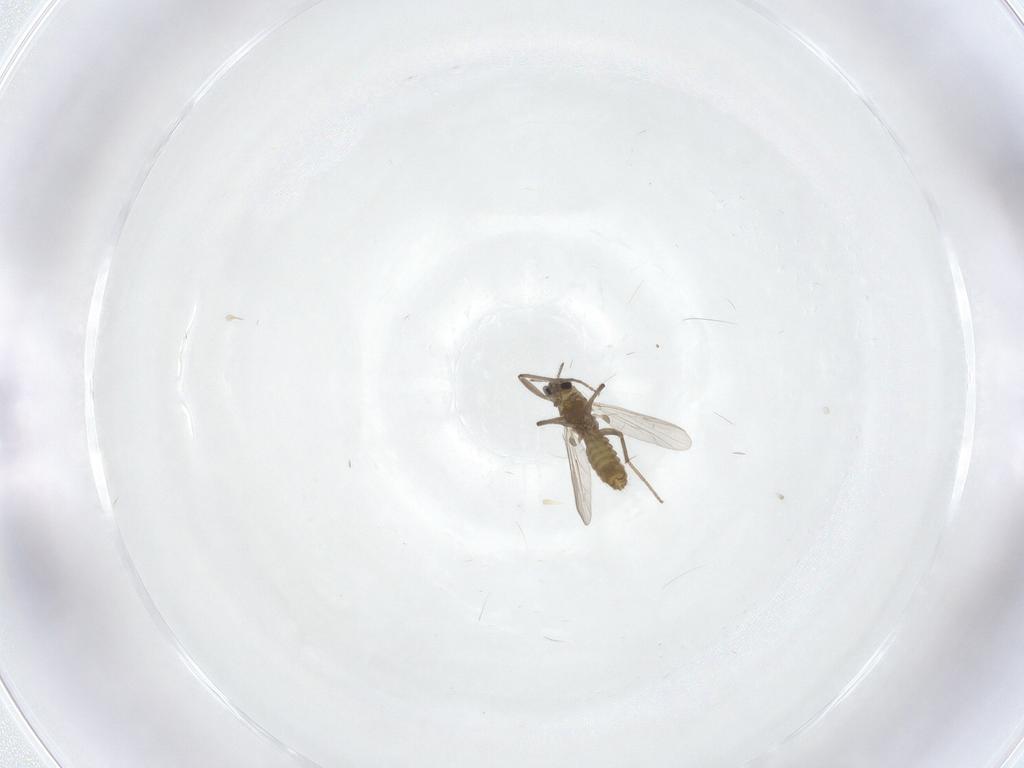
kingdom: Animalia
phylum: Arthropoda
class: Insecta
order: Diptera
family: Chironomidae
